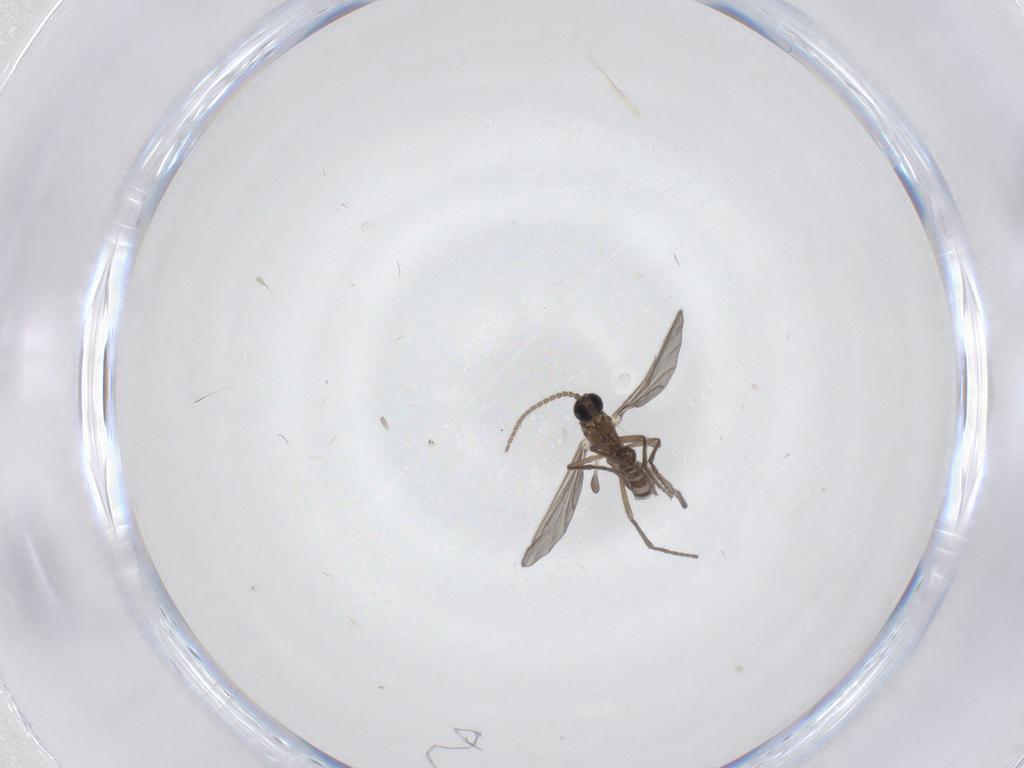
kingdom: Animalia
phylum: Arthropoda
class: Insecta
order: Diptera
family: Sciaridae
